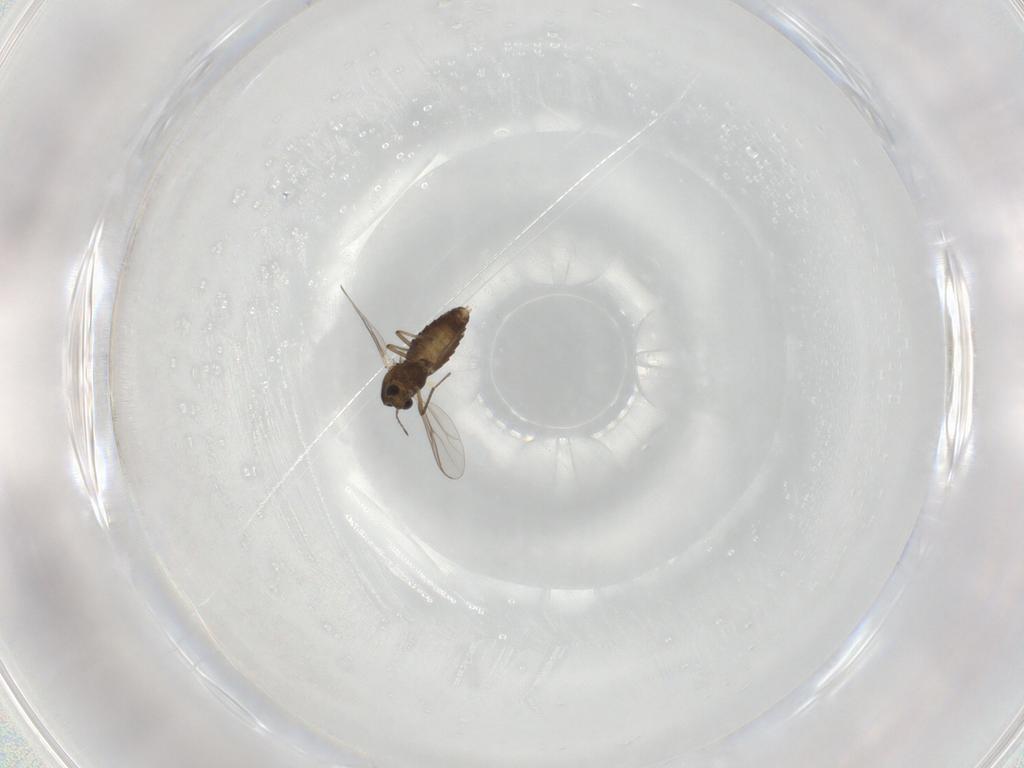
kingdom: Animalia
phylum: Arthropoda
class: Insecta
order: Diptera
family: Chironomidae
